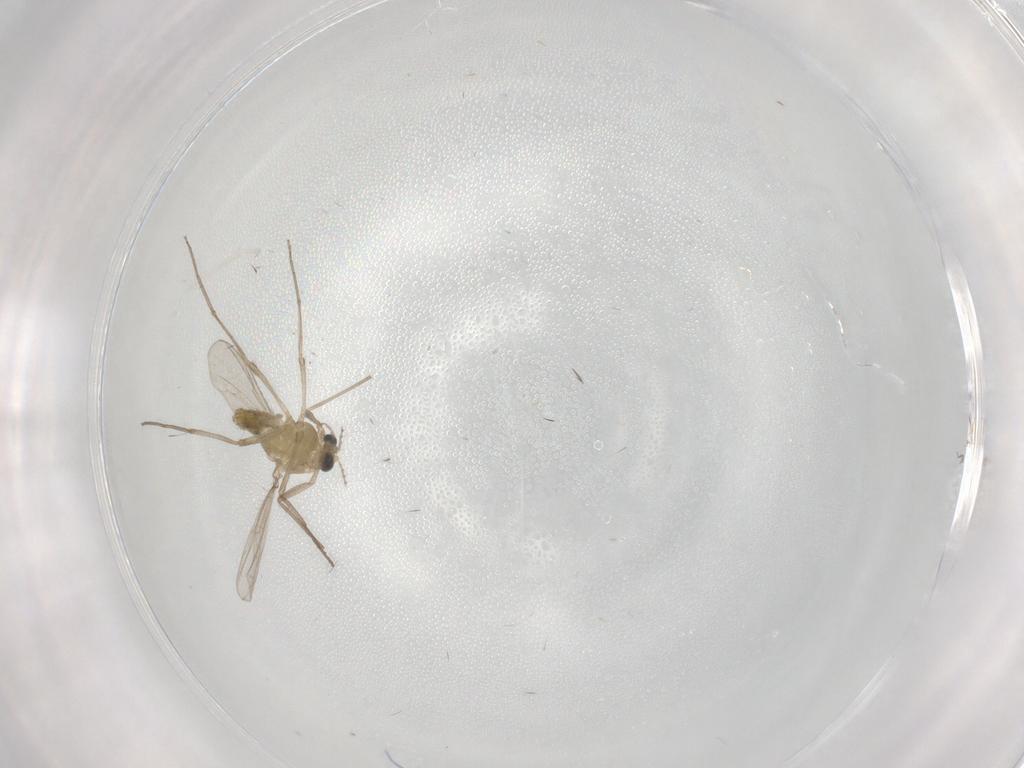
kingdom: Animalia
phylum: Arthropoda
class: Insecta
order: Diptera
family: Chironomidae
